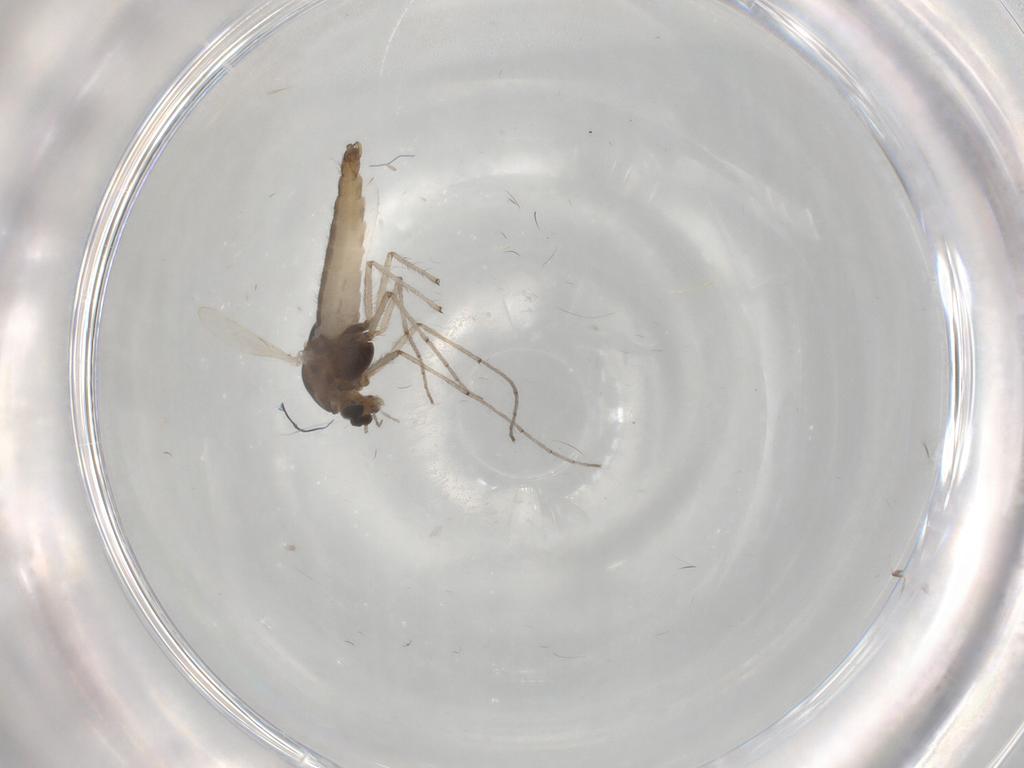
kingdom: Animalia
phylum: Arthropoda
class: Insecta
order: Diptera
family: Chironomidae
